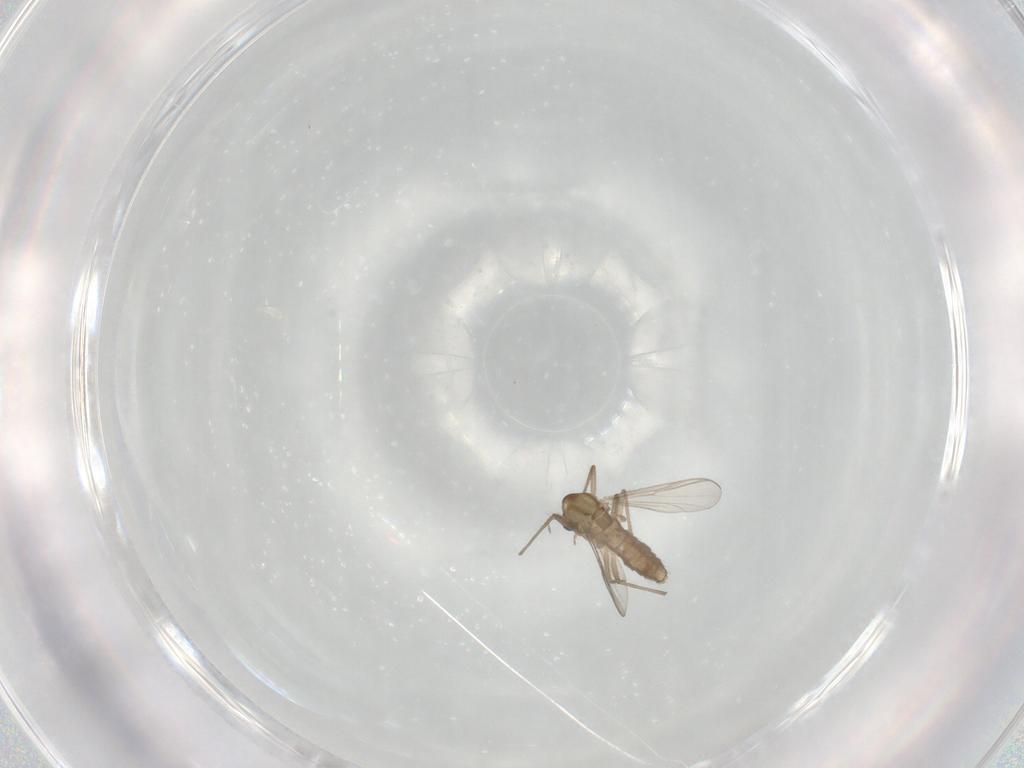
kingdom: Animalia
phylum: Arthropoda
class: Insecta
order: Diptera
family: Chironomidae
